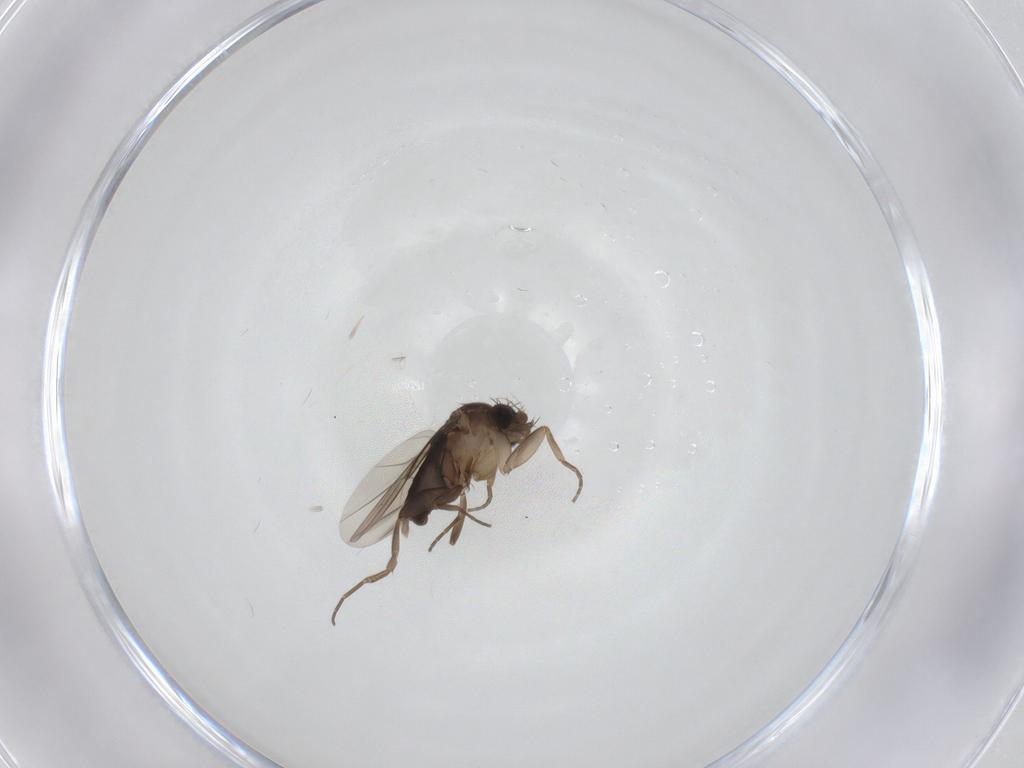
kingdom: Animalia
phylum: Arthropoda
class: Insecta
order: Diptera
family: Phoridae
